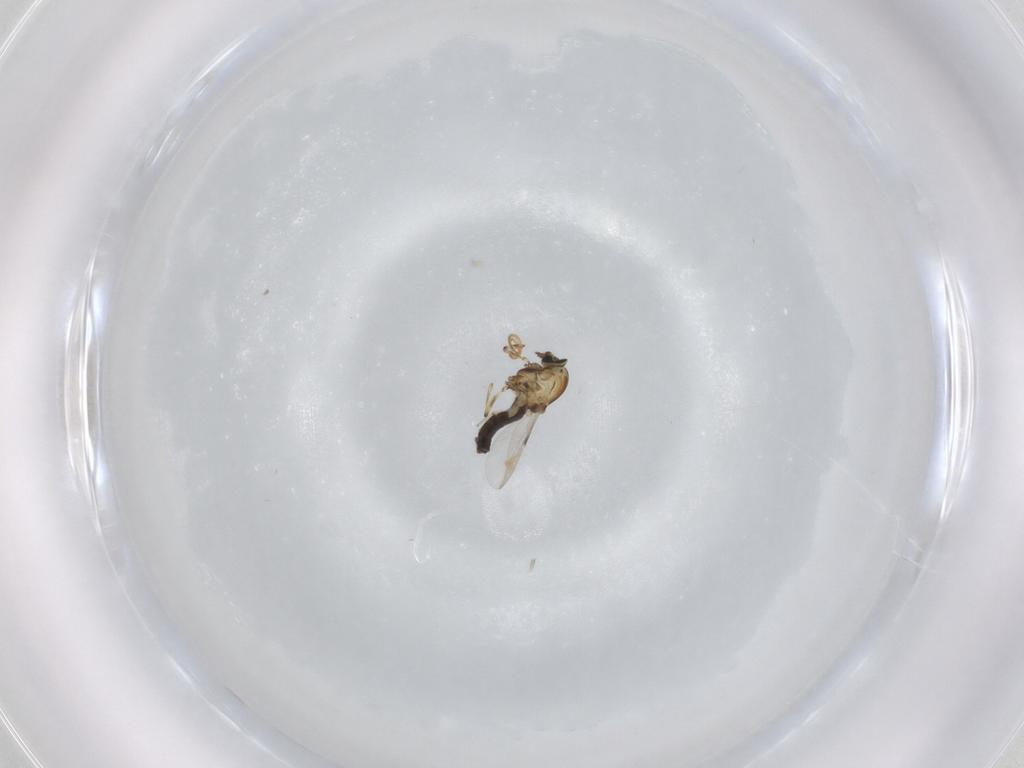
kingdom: Animalia
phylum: Arthropoda
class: Insecta
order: Diptera
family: Ceratopogonidae
